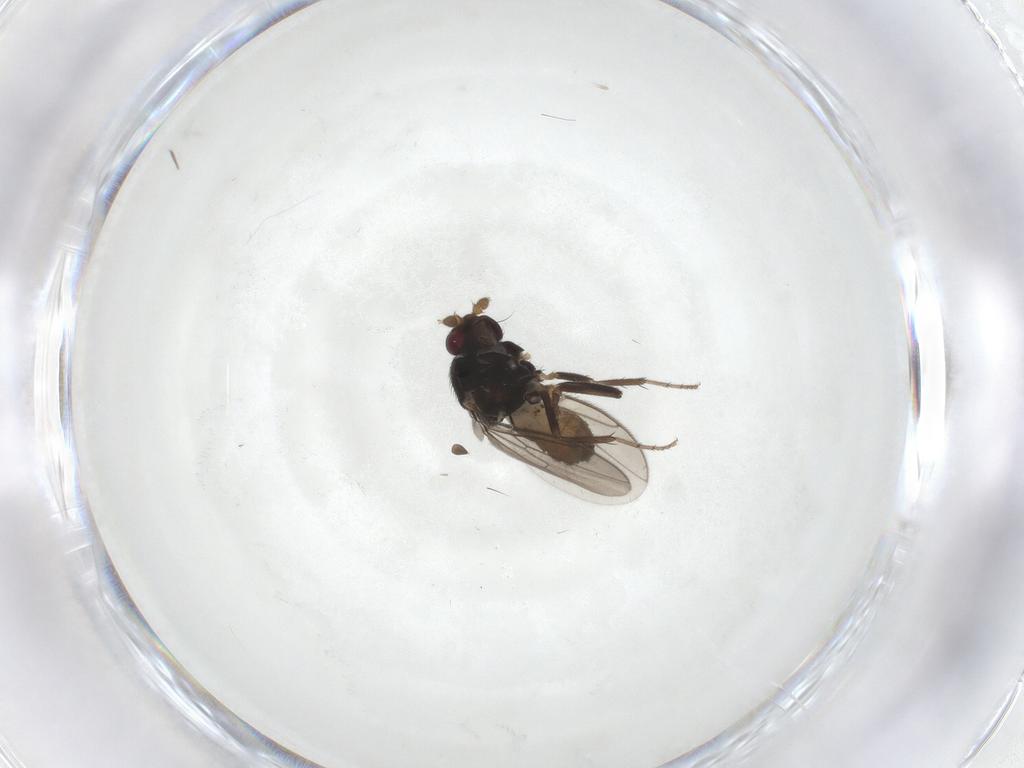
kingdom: Animalia
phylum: Arthropoda
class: Insecta
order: Diptera
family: Sphaeroceridae
